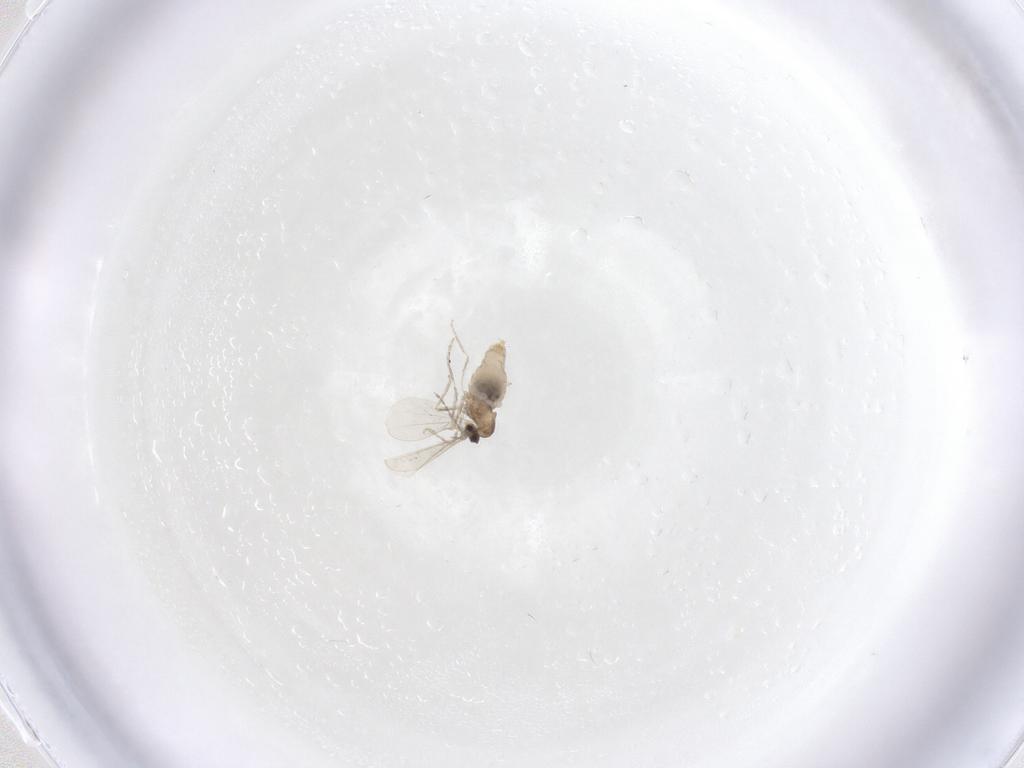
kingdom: Animalia
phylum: Arthropoda
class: Insecta
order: Diptera
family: Cecidomyiidae
